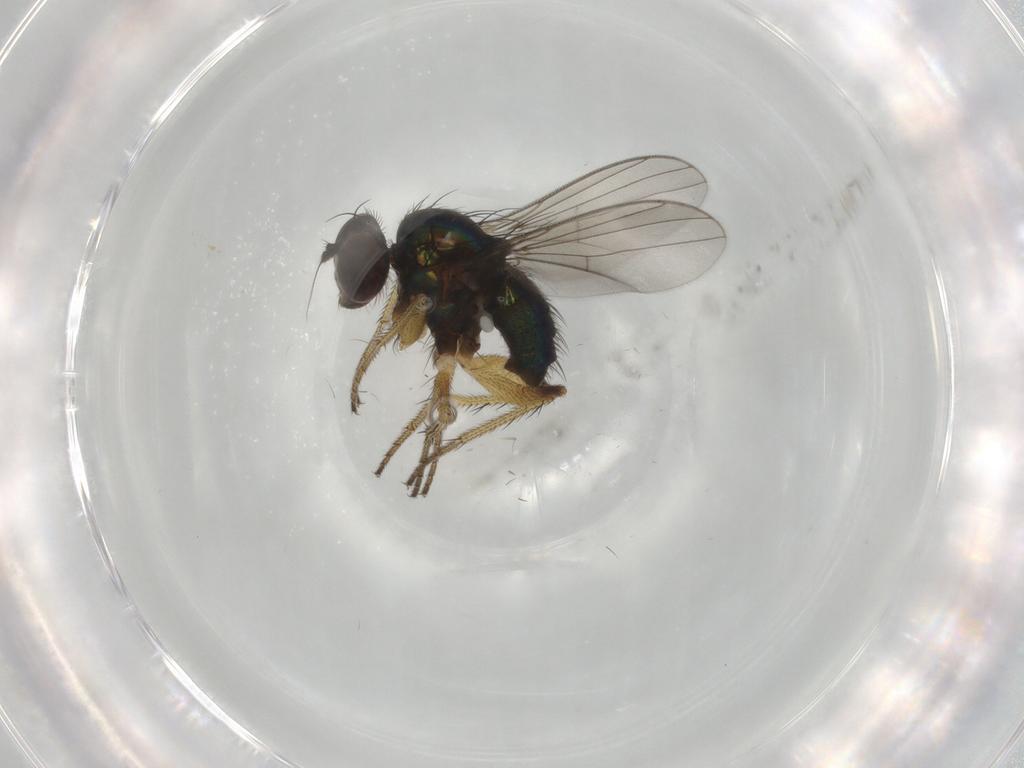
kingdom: Animalia
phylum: Arthropoda
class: Insecta
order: Diptera
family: Dolichopodidae
